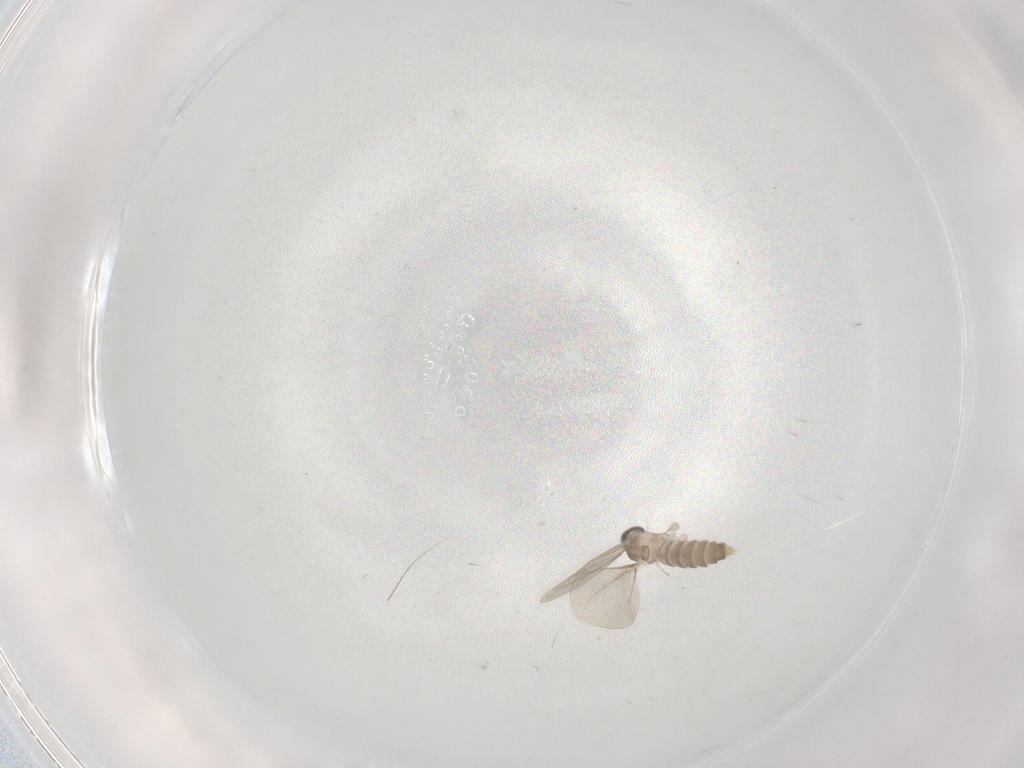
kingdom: Animalia
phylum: Arthropoda
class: Insecta
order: Diptera
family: Cecidomyiidae
